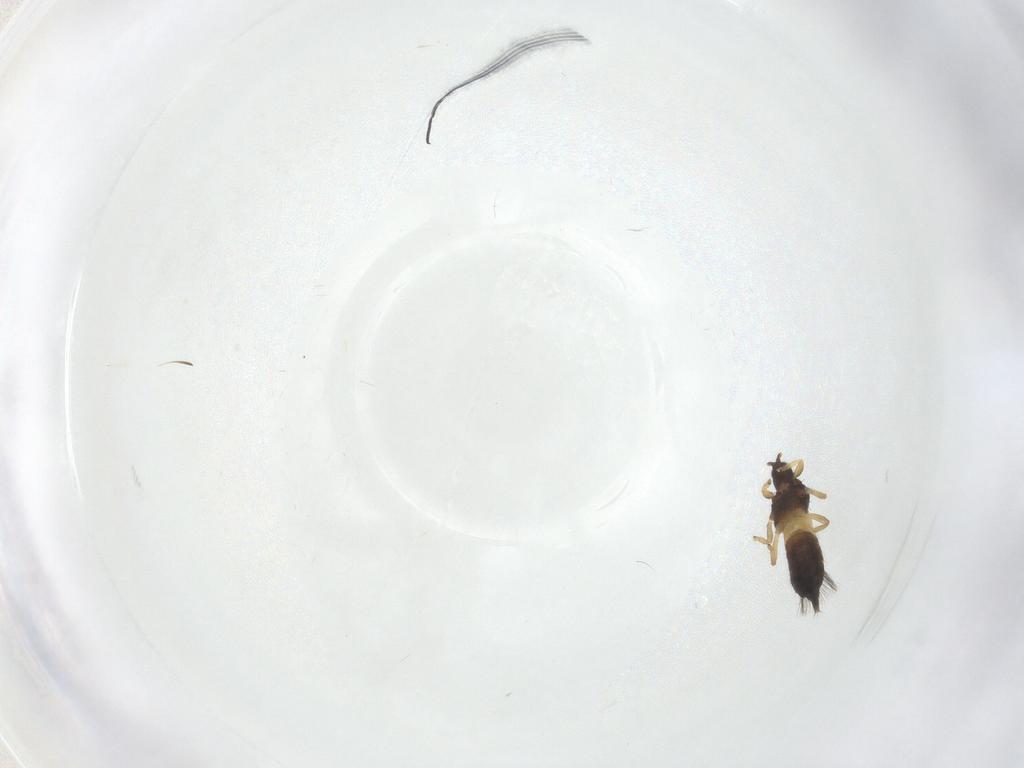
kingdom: Animalia
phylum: Arthropoda
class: Insecta
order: Thysanoptera
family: Phlaeothripidae
